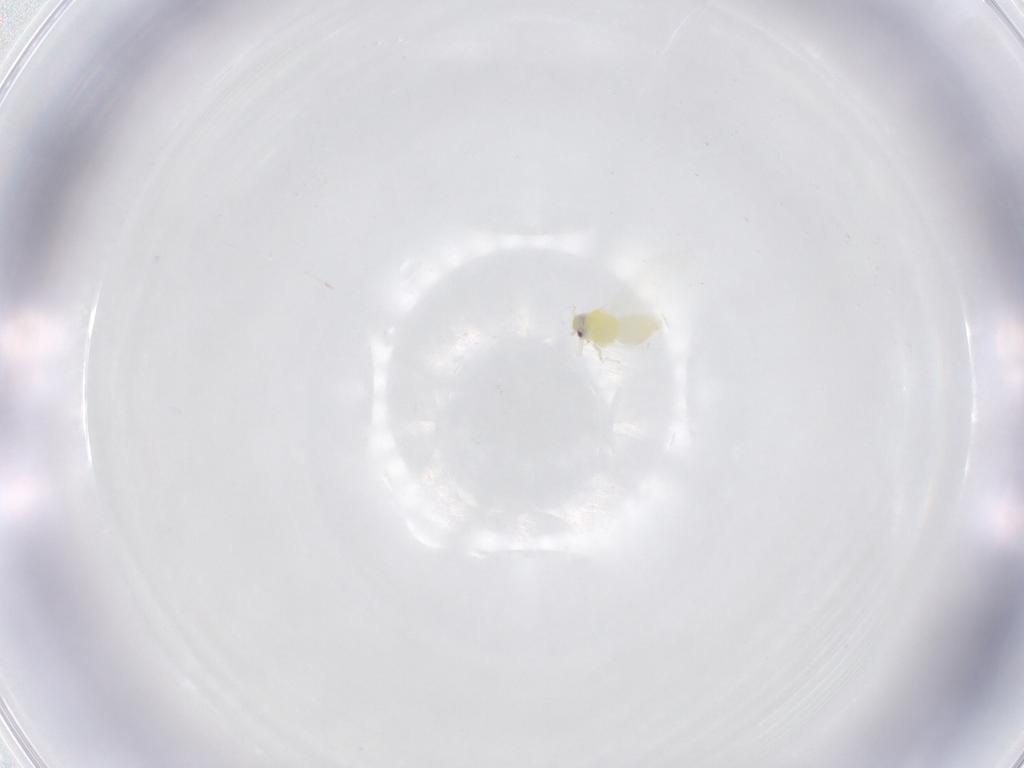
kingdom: Animalia
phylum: Arthropoda
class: Insecta
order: Hemiptera
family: Aleyrodidae
